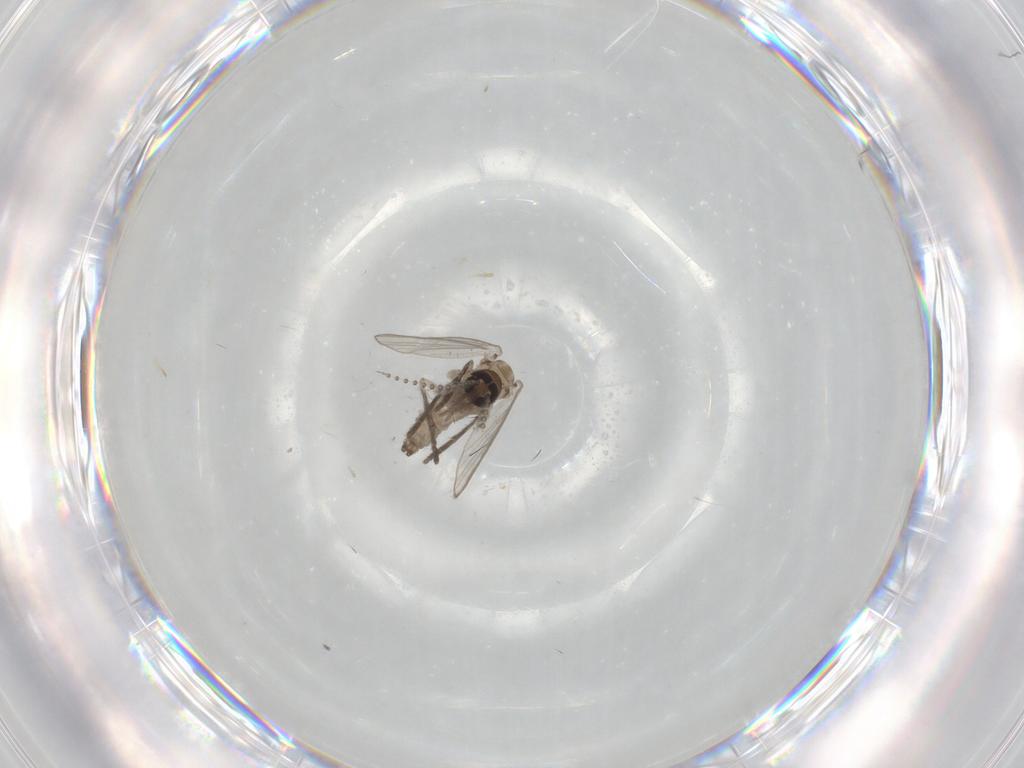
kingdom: Animalia
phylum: Arthropoda
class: Insecta
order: Diptera
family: Psychodidae
